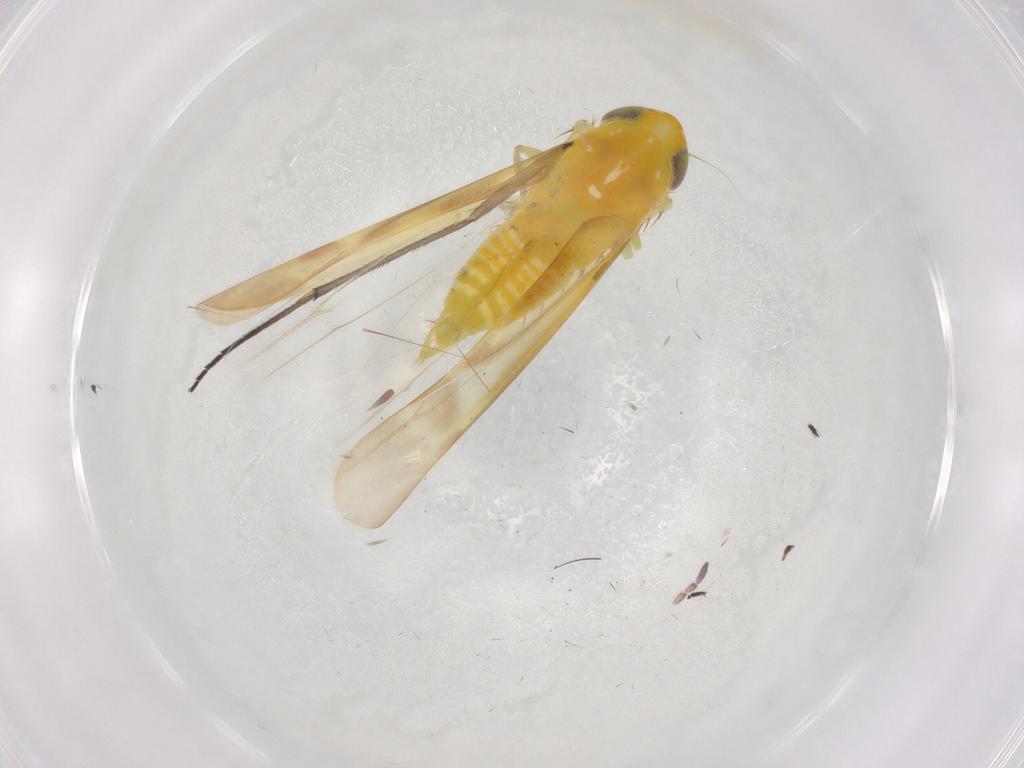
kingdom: Animalia
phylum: Arthropoda
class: Insecta
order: Hemiptera
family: Cicadellidae
